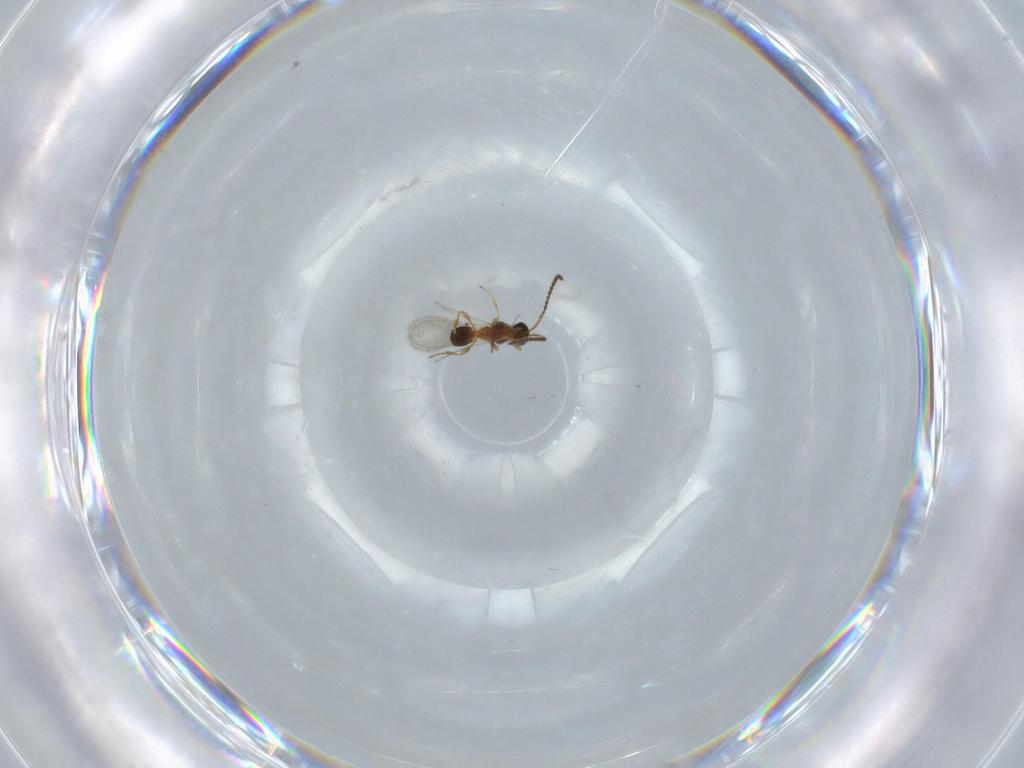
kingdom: Animalia
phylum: Arthropoda
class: Insecta
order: Hymenoptera
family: Diapriidae
